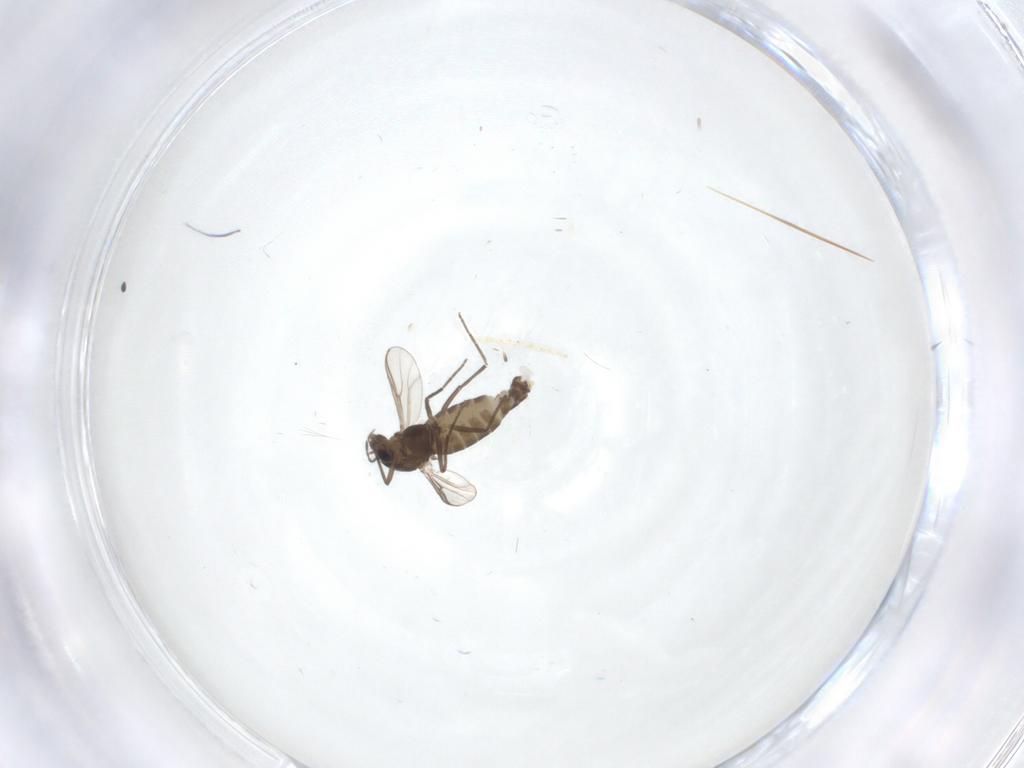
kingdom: Animalia
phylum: Arthropoda
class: Insecta
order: Diptera
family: Chironomidae
